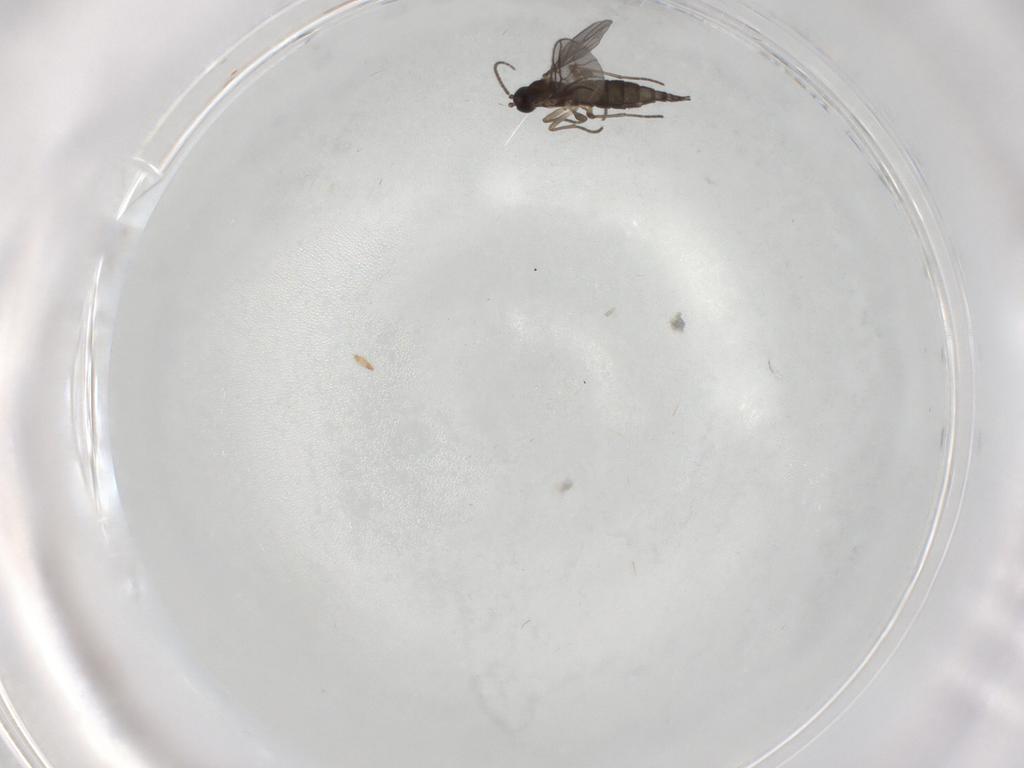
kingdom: Animalia
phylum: Arthropoda
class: Insecta
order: Diptera
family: Sciaridae
